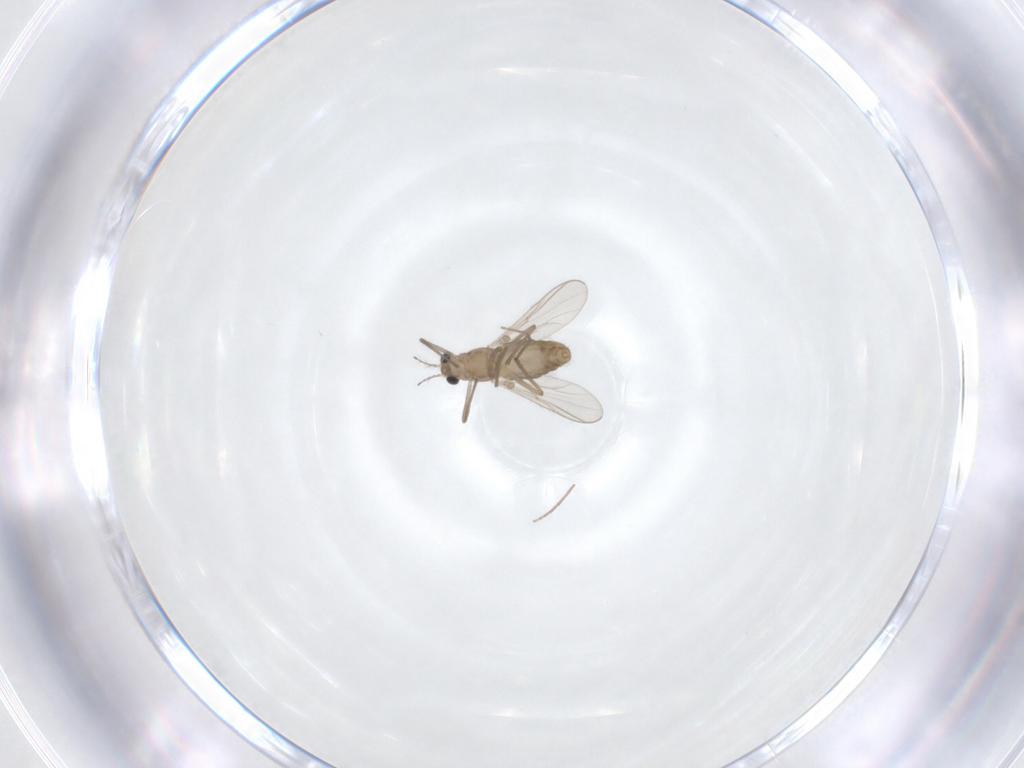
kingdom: Animalia
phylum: Arthropoda
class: Insecta
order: Diptera
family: Chironomidae
